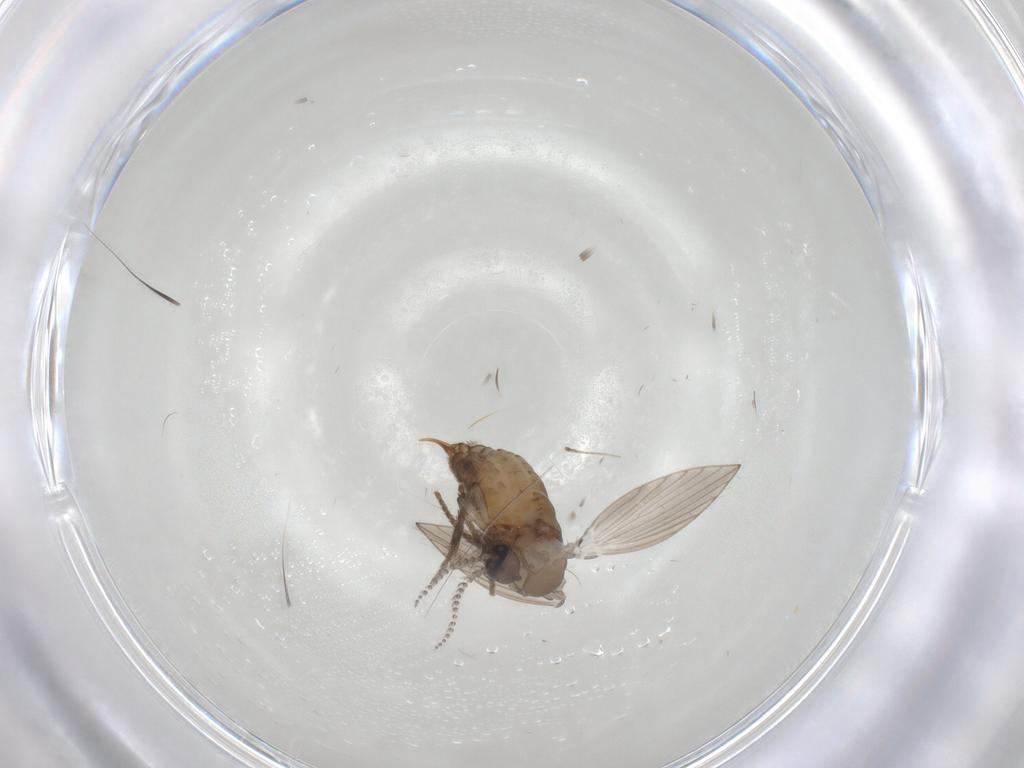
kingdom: Animalia
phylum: Arthropoda
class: Insecta
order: Diptera
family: Psychodidae
